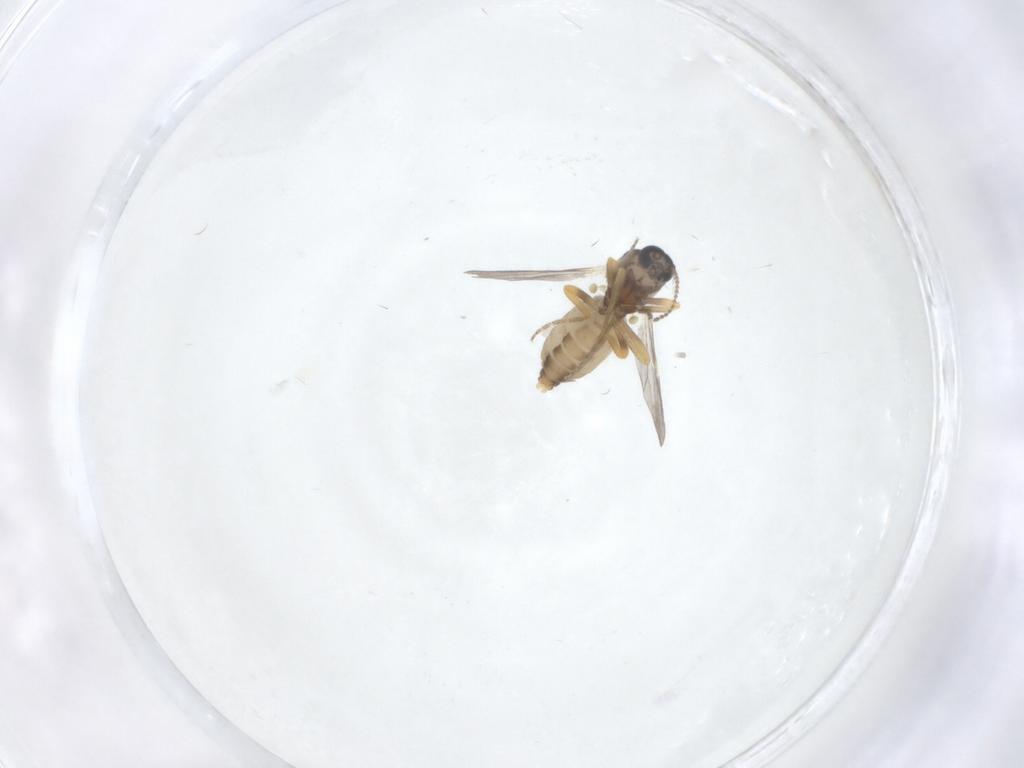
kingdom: Animalia
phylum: Arthropoda
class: Insecta
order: Diptera
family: Ceratopogonidae
